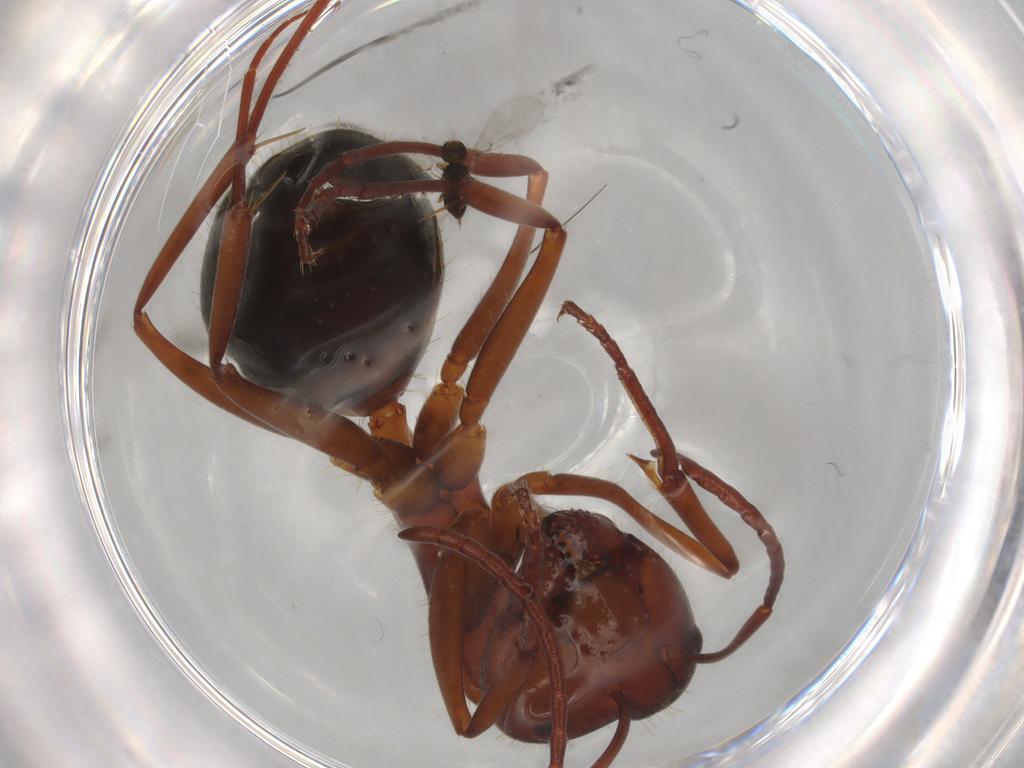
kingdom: Animalia
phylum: Arthropoda
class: Insecta
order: Hymenoptera
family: Formicidae
